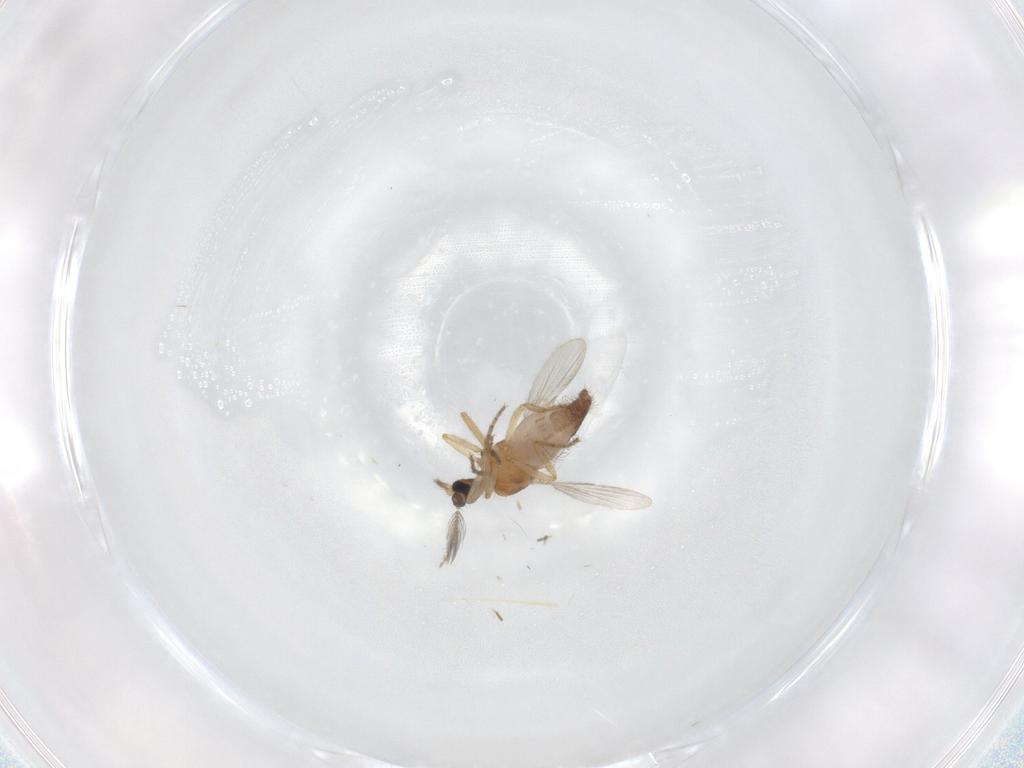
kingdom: Animalia
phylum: Arthropoda
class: Insecta
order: Diptera
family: Ceratopogonidae
